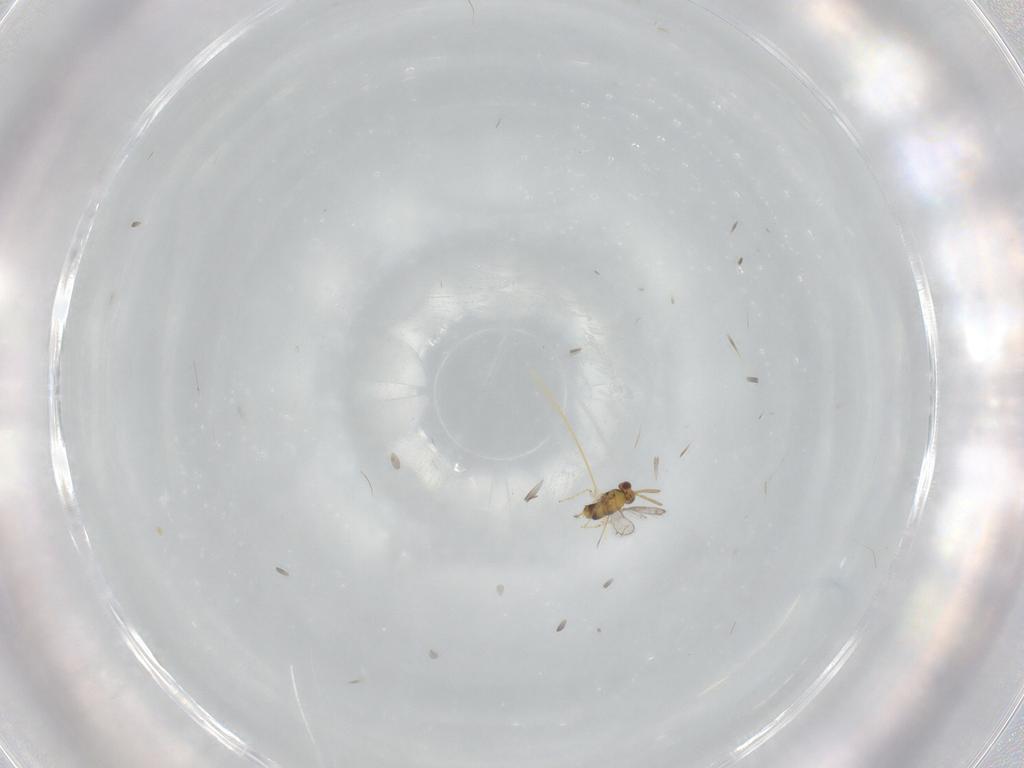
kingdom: Animalia
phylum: Arthropoda
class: Insecta
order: Hymenoptera
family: Aphelinidae
